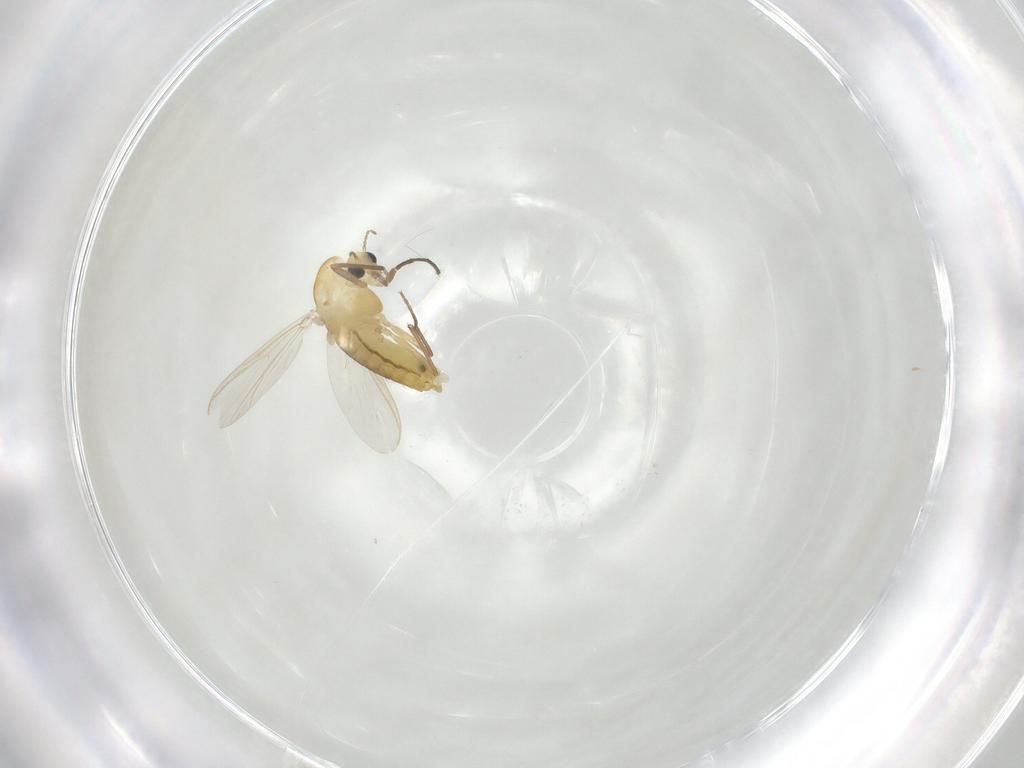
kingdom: Animalia
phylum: Arthropoda
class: Insecta
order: Diptera
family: Chironomidae
